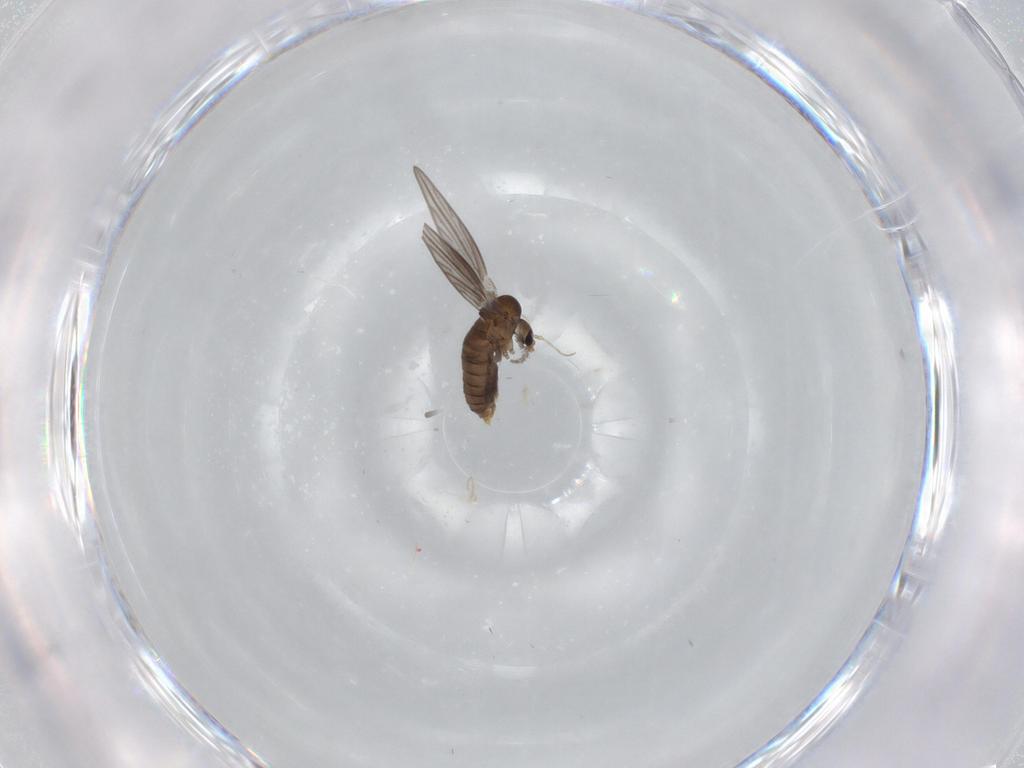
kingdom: Animalia
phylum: Arthropoda
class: Insecta
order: Diptera
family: Psychodidae
